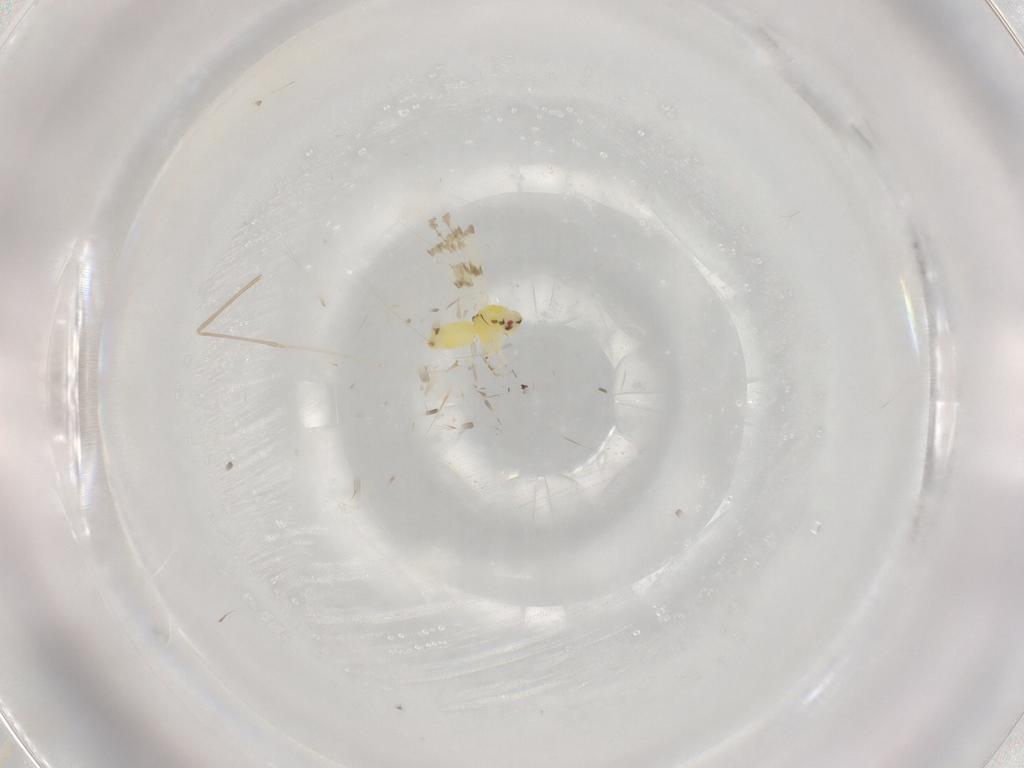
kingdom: Animalia
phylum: Arthropoda
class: Insecta
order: Hemiptera
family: Aleyrodidae
